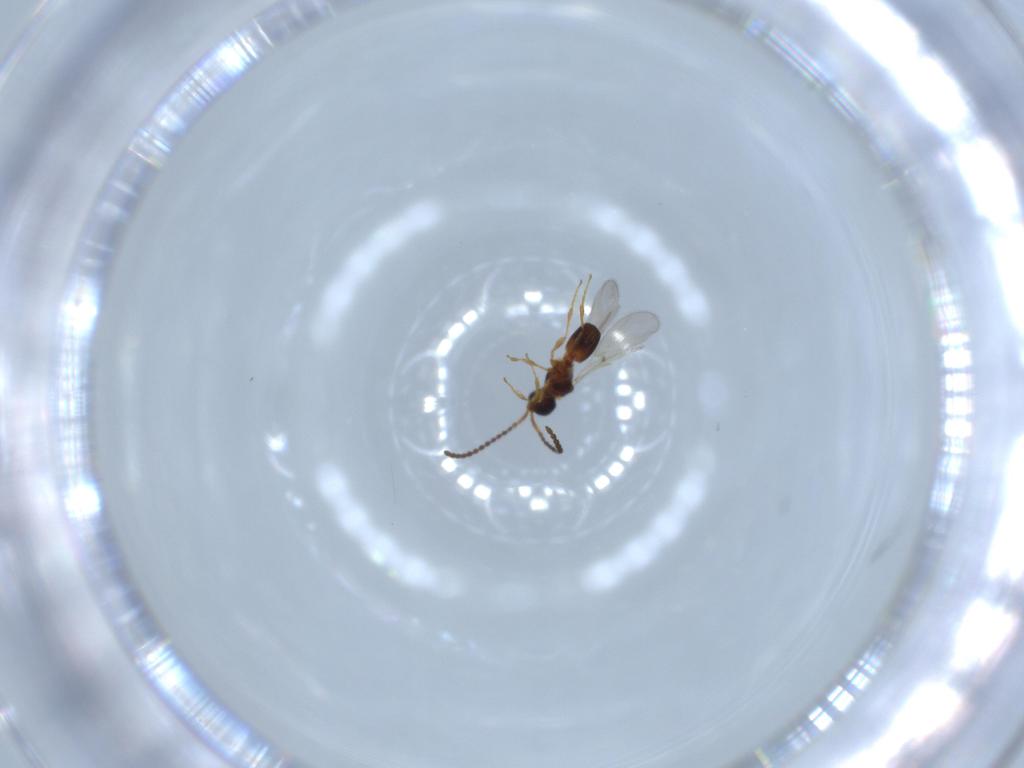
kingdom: Animalia
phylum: Arthropoda
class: Insecta
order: Hymenoptera
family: Diapriidae
